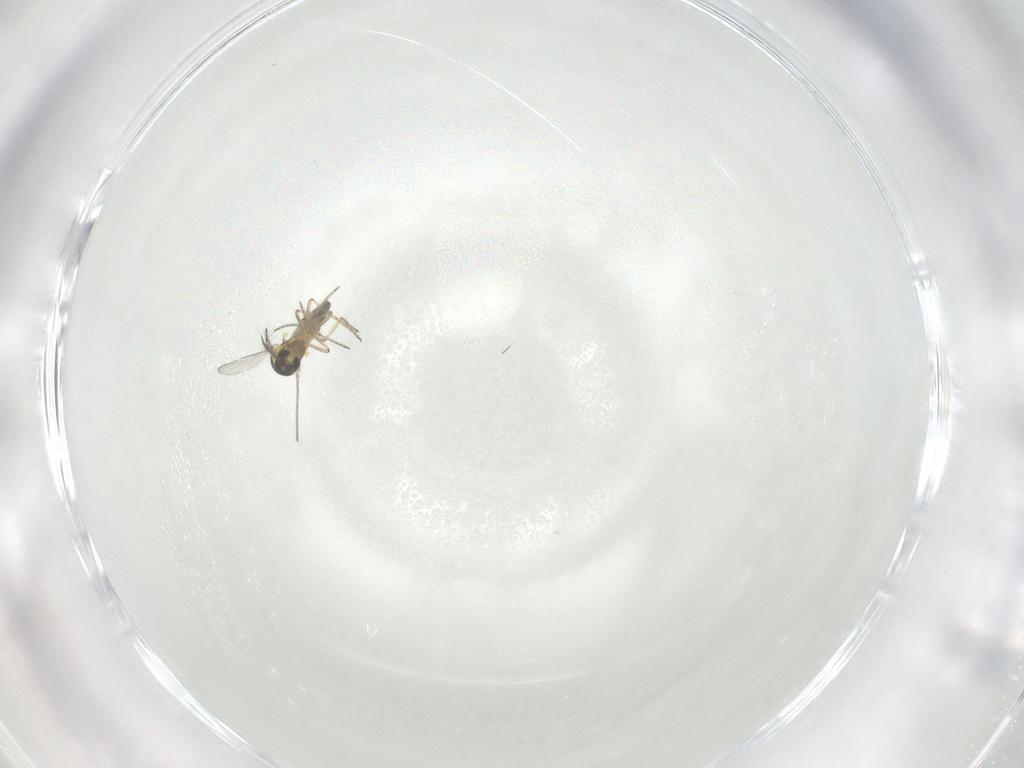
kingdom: Animalia
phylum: Arthropoda
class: Insecta
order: Diptera
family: Ceratopogonidae
